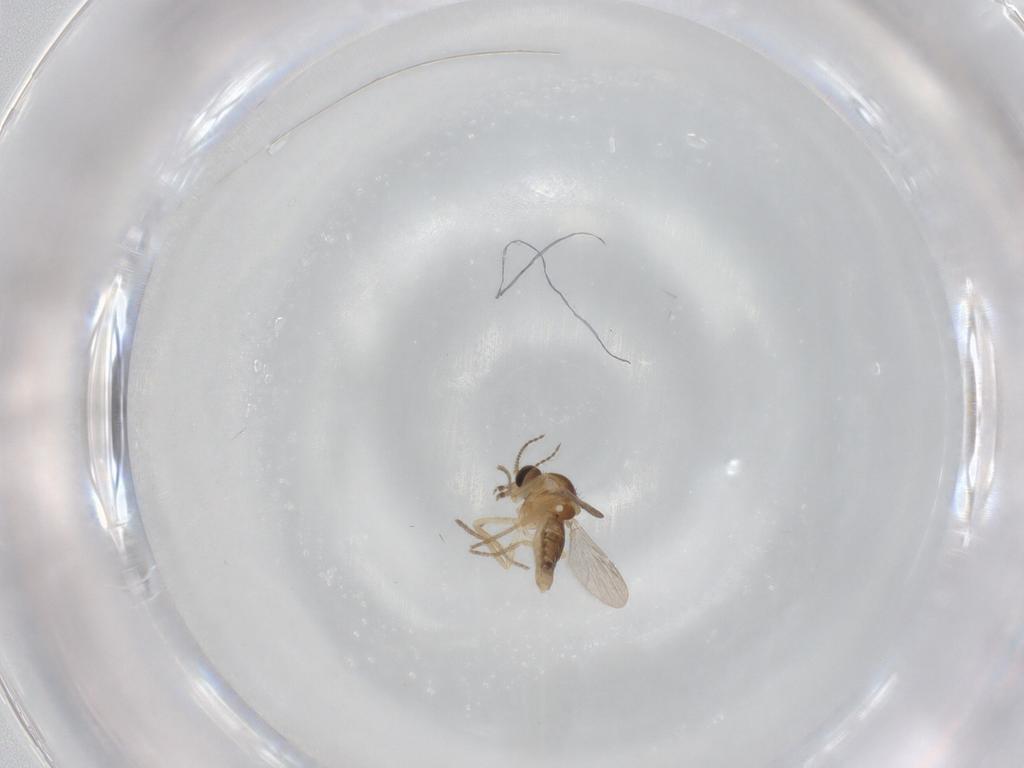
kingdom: Animalia
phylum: Arthropoda
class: Insecta
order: Diptera
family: Ceratopogonidae
